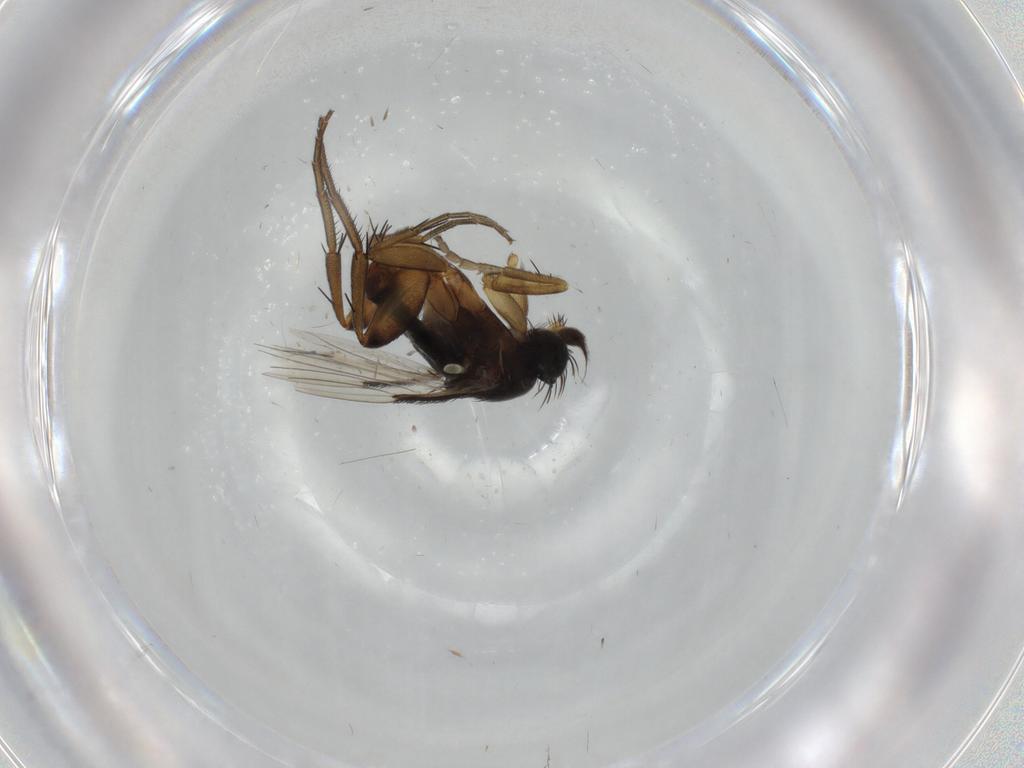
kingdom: Animalia
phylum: Arthropoda
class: Insecta
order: Diptera
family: Phoridae
